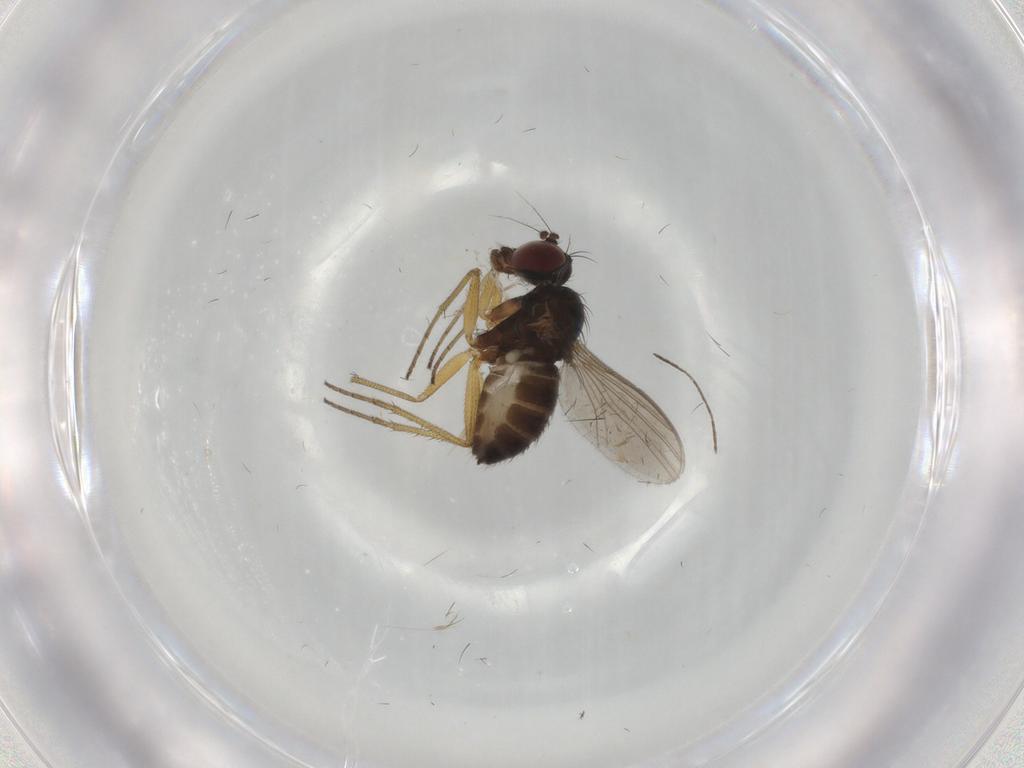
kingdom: Animalia
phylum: Arthropoda
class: Insecta
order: Diptera
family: Dolichopodidae
